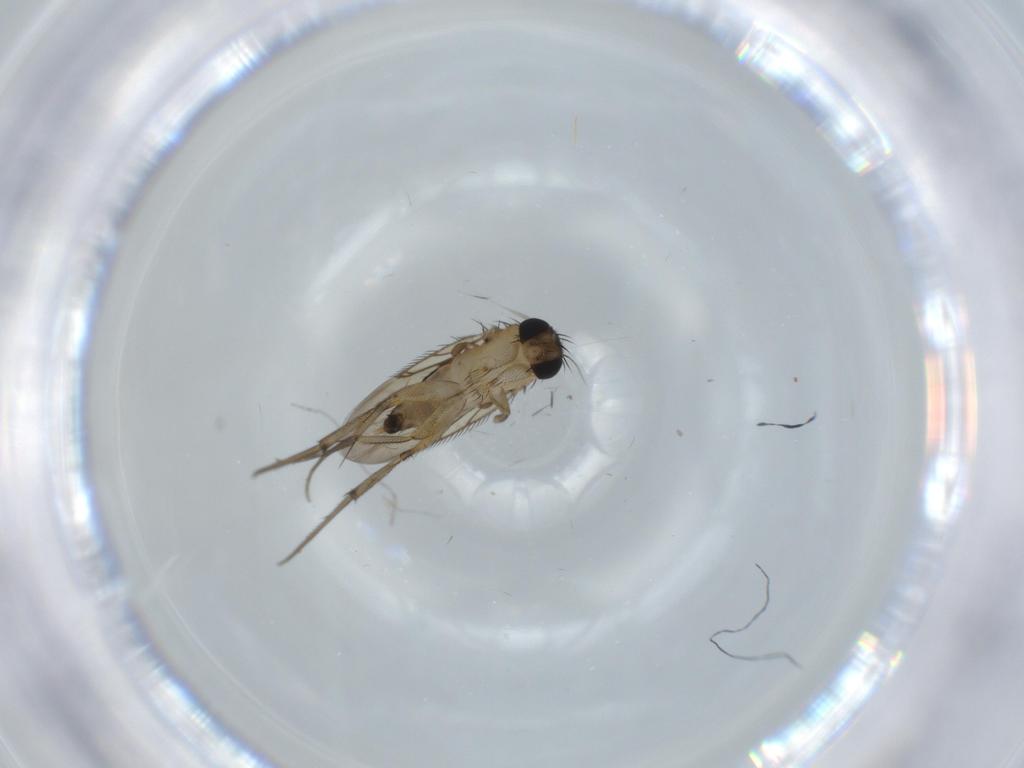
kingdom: Animalia
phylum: Arthropoda
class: Insecta
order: Diptera
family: Phoridae
